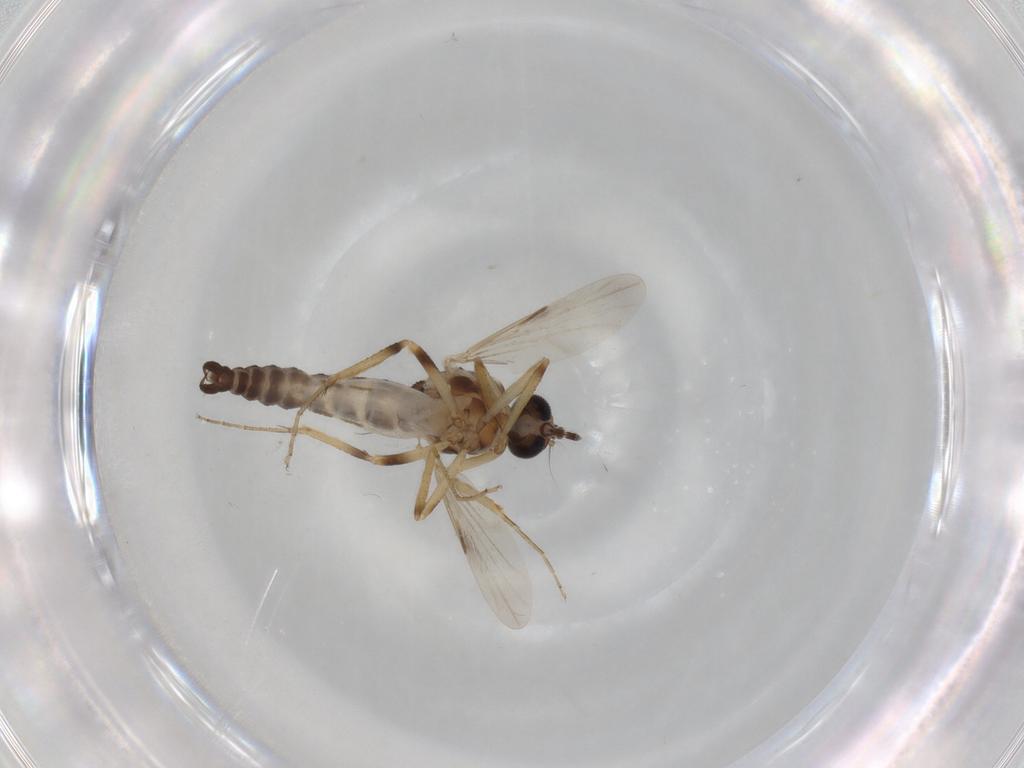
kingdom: Animalia
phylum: Arthropoda
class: Insecta
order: Diptera
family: Ceratopogonidae
